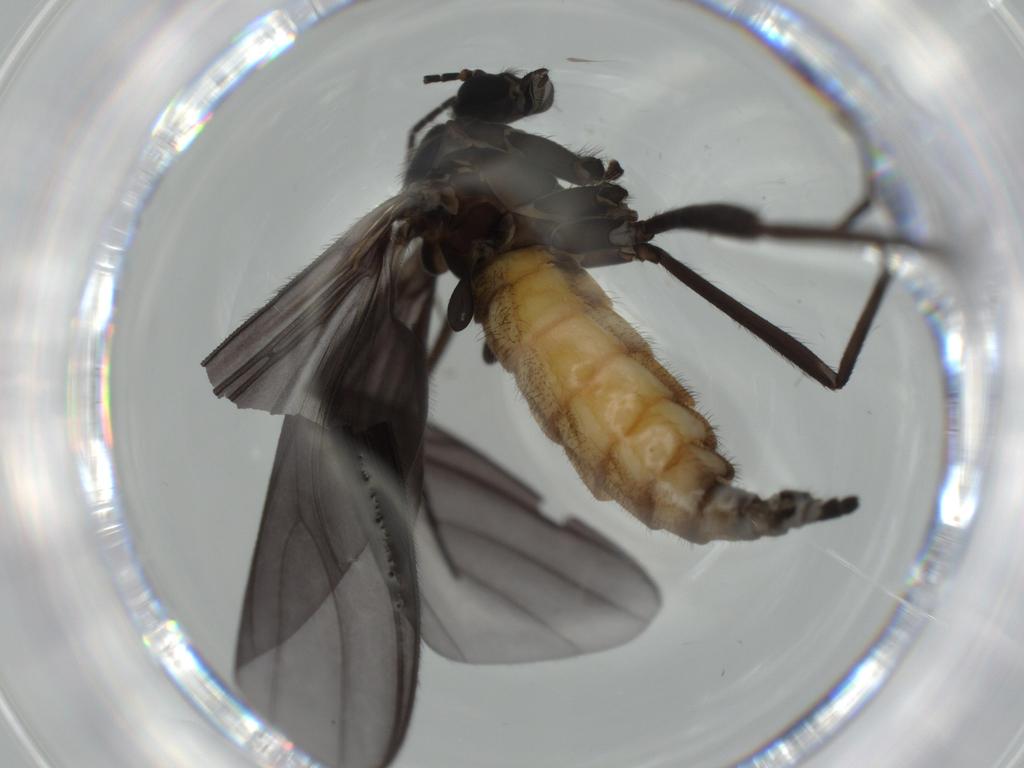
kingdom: Animalia
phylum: Arthropoda
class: Insecta
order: Diptera
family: Cecidomyiidae
